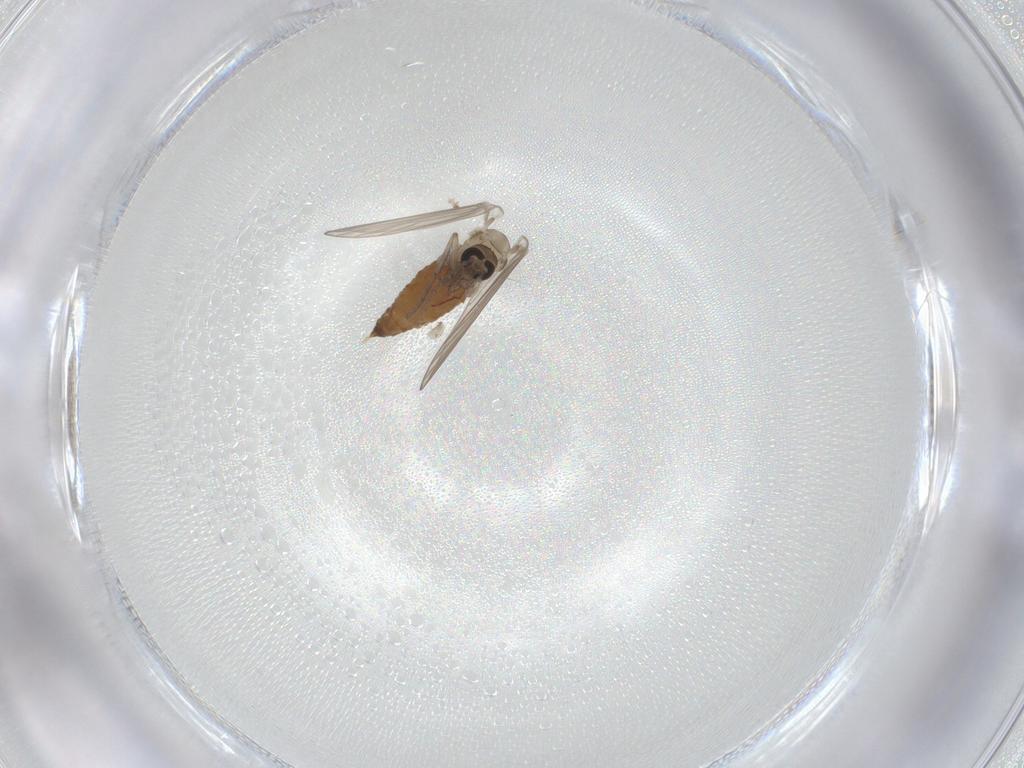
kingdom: Animalia
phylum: Arthropoda
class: Insecta
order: Diptera
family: Psychodidae
